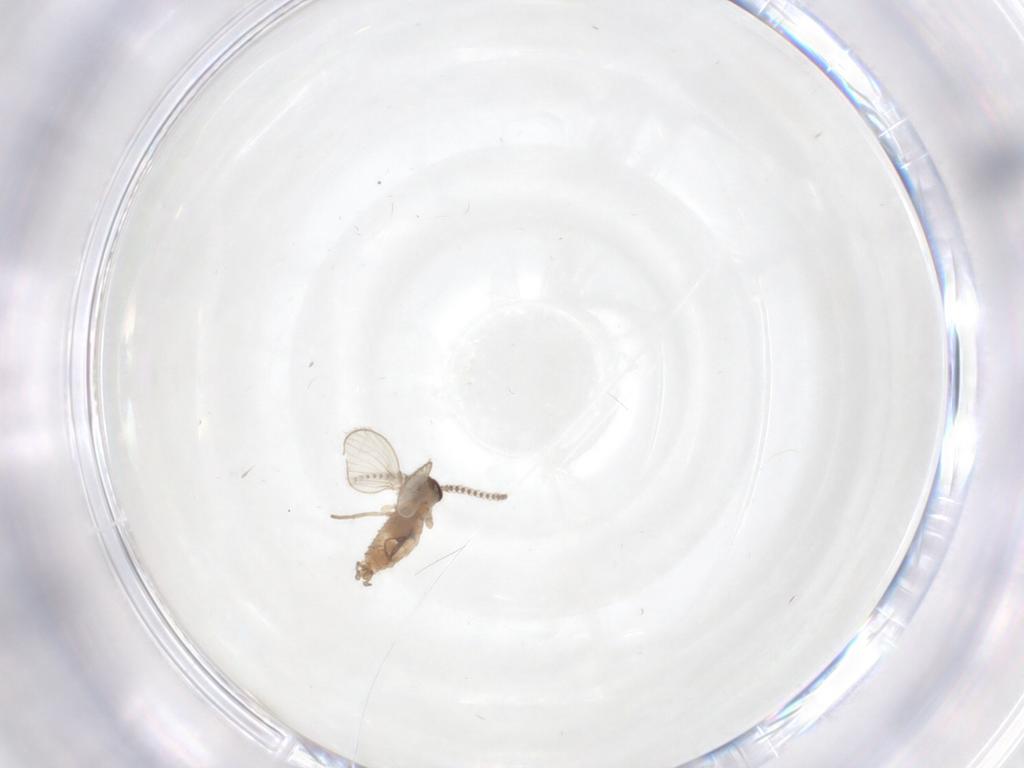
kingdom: Animalia
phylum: Arthropoda
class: Insecta
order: Diptera
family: Cecidomyiidae
